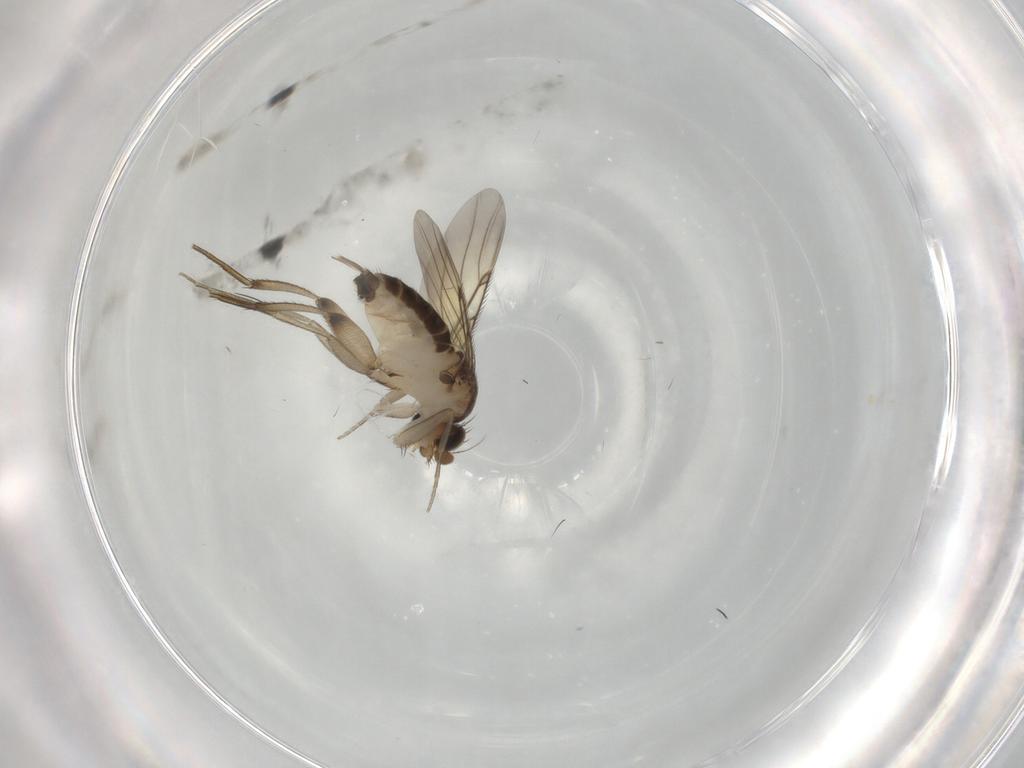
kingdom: Animalia
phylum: Arthropoda
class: Insecta
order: Diptera
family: Phoridae
